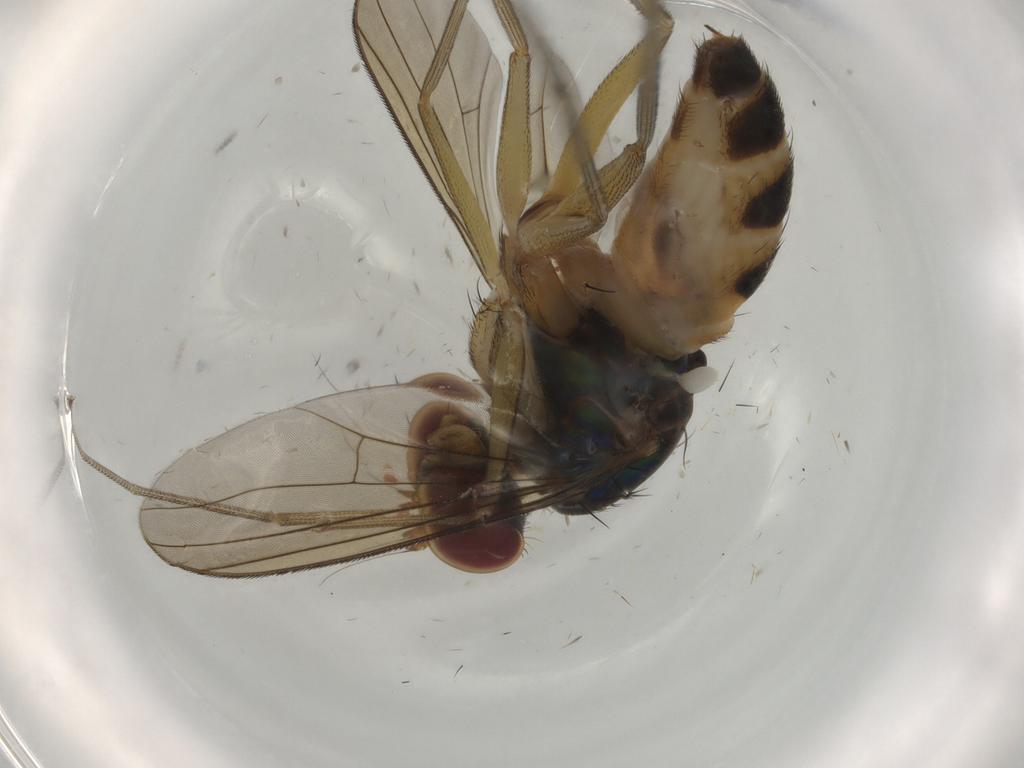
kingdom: Animalia
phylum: Arthropoda
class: Insecta
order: Diptera
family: Dolichopodidae
